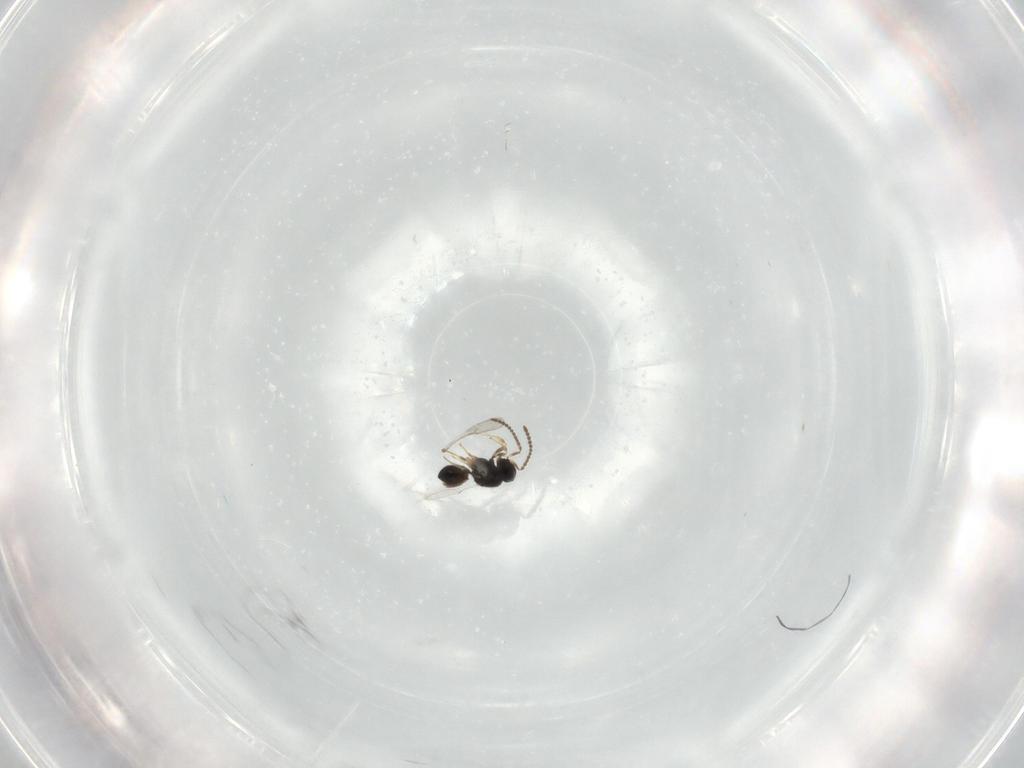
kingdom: Animalia
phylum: Arthropoda
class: Insecta
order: Hymenoptera
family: Scelionidae
